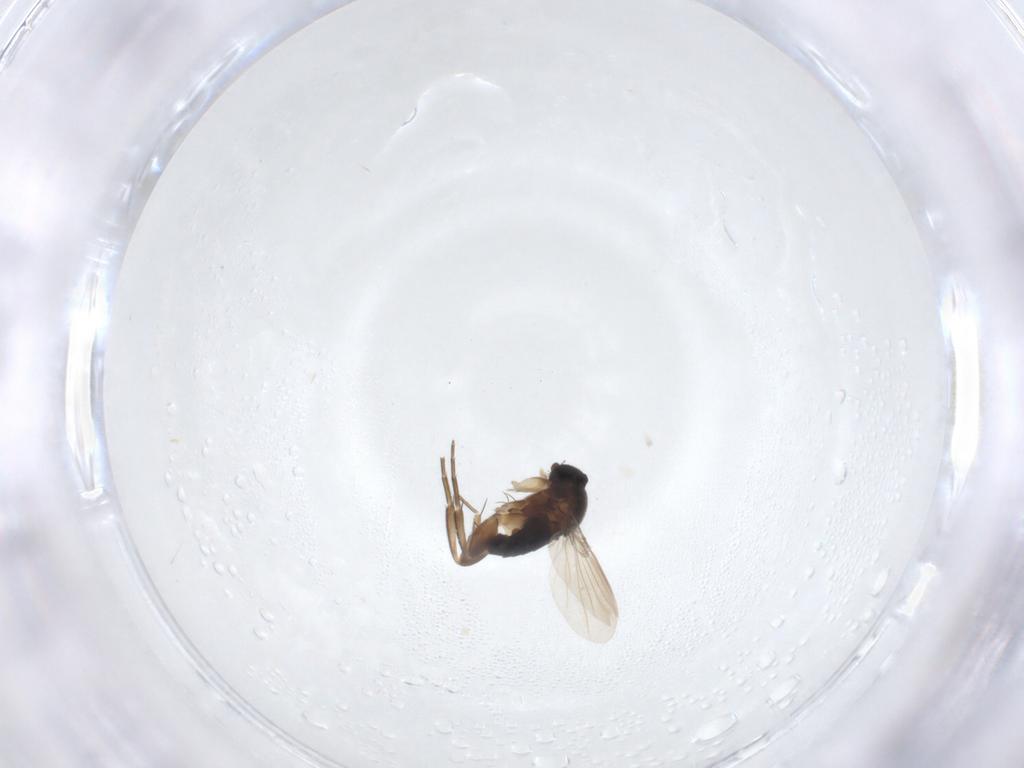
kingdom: Animalia
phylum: Arthropoda
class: Insecta
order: Diptera
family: Phoridae
